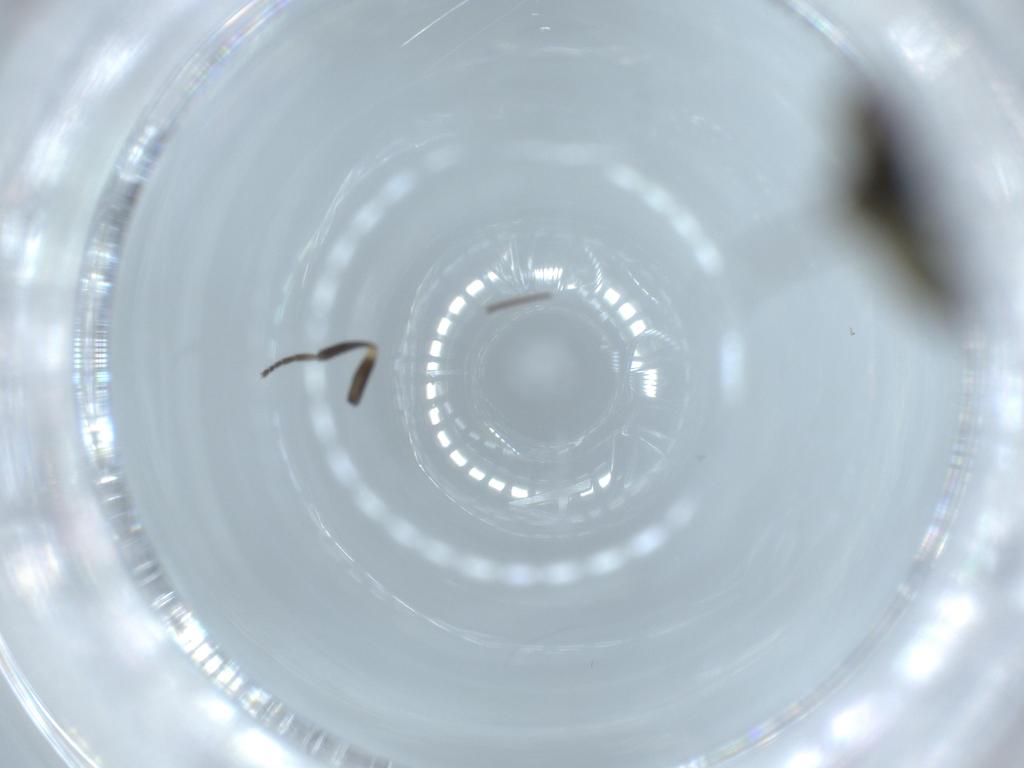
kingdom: Animalia
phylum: Arthropoda
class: Insecta
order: Diptera
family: Agromyzidae
